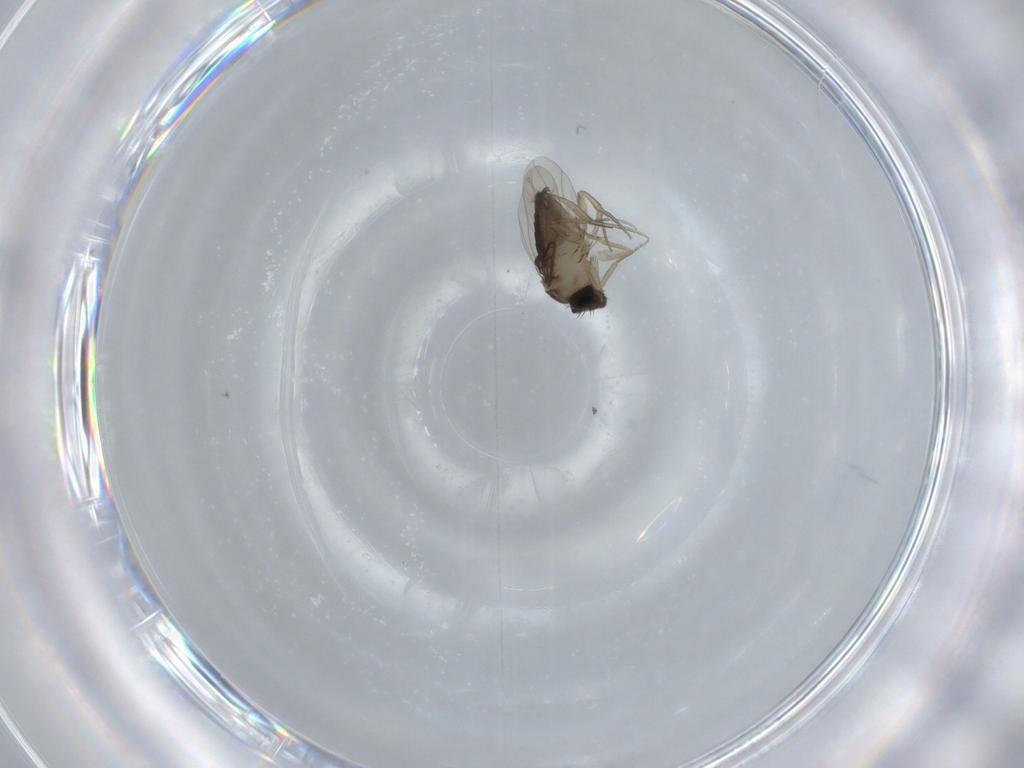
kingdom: Animalia
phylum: Arthropoda
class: Insecta
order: Diptera
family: Phoridae
